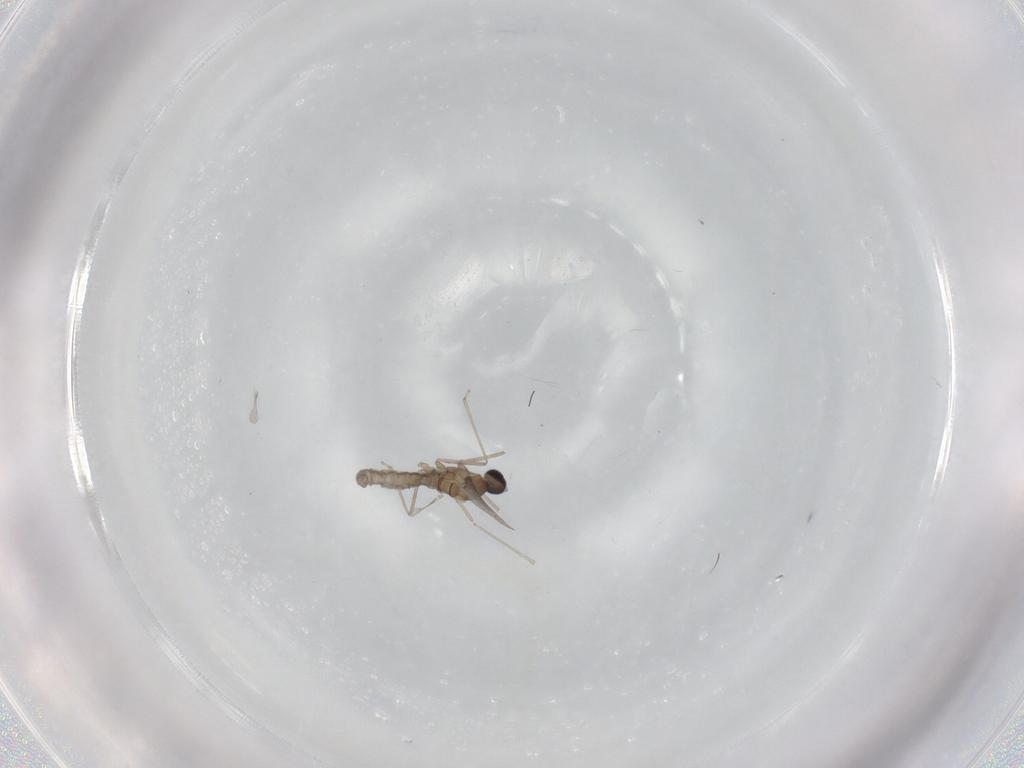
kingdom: Animalia
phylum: Arthropoda
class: Insecta
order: Diptera
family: Cecidomyiidae
